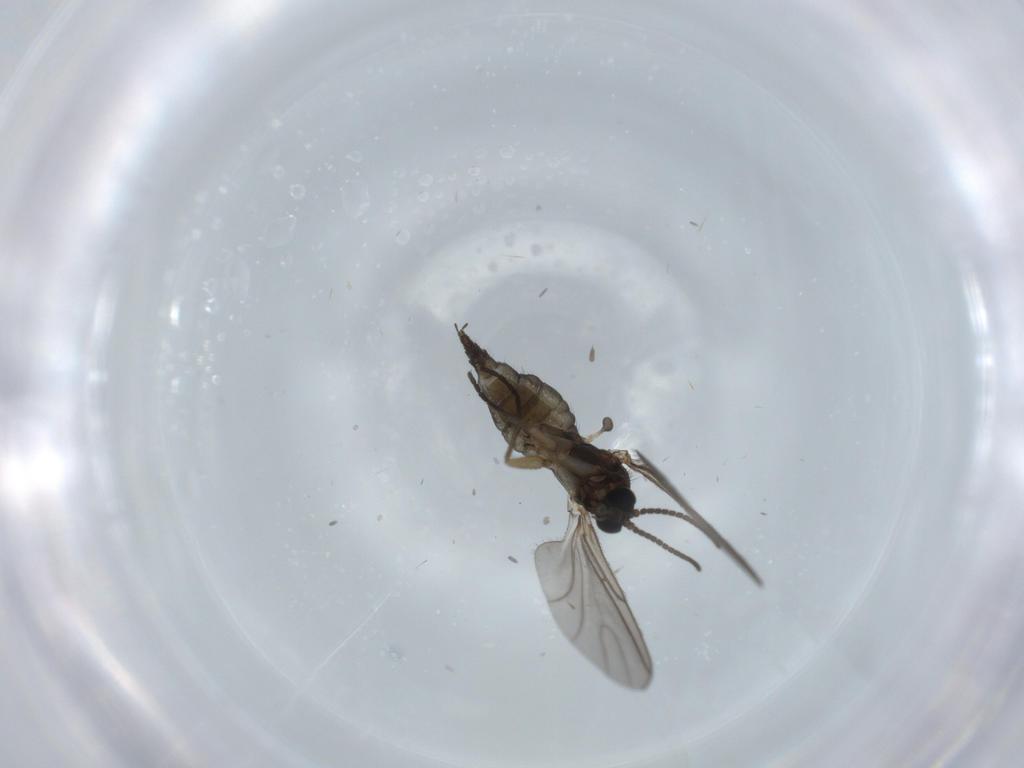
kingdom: Animalia
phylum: Arthropoda
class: Insecta
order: Diptera
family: Sciaridae
